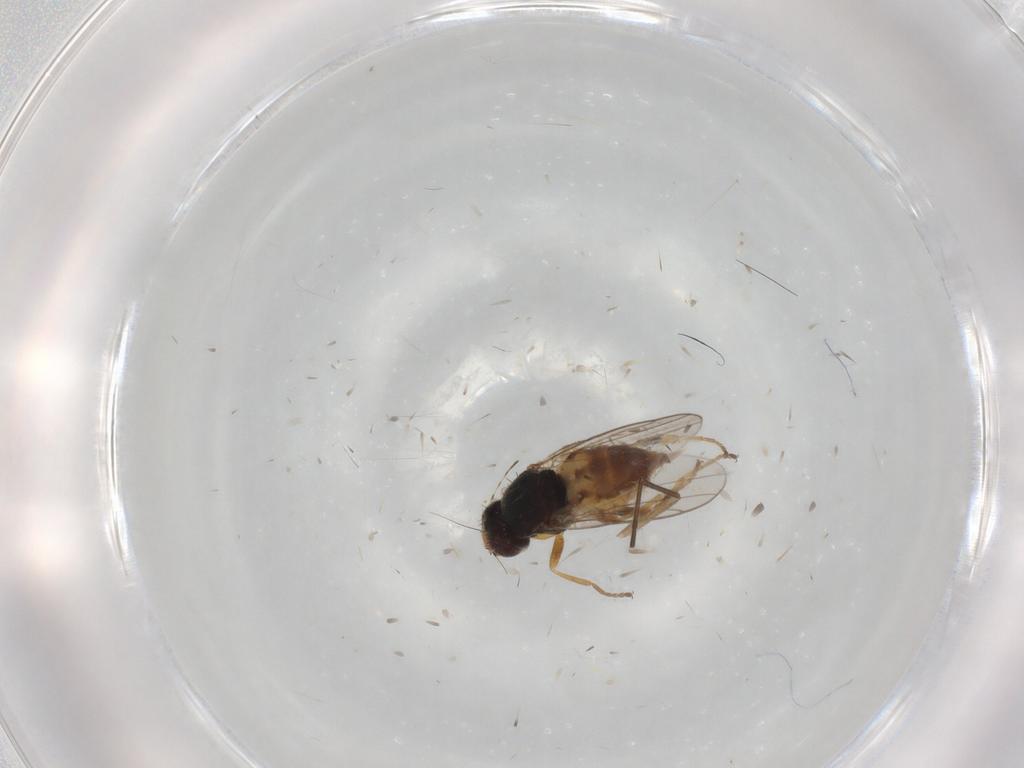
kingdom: Animalia
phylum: Arthropoda
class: Insecta
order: Diptera
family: Chloropidae
